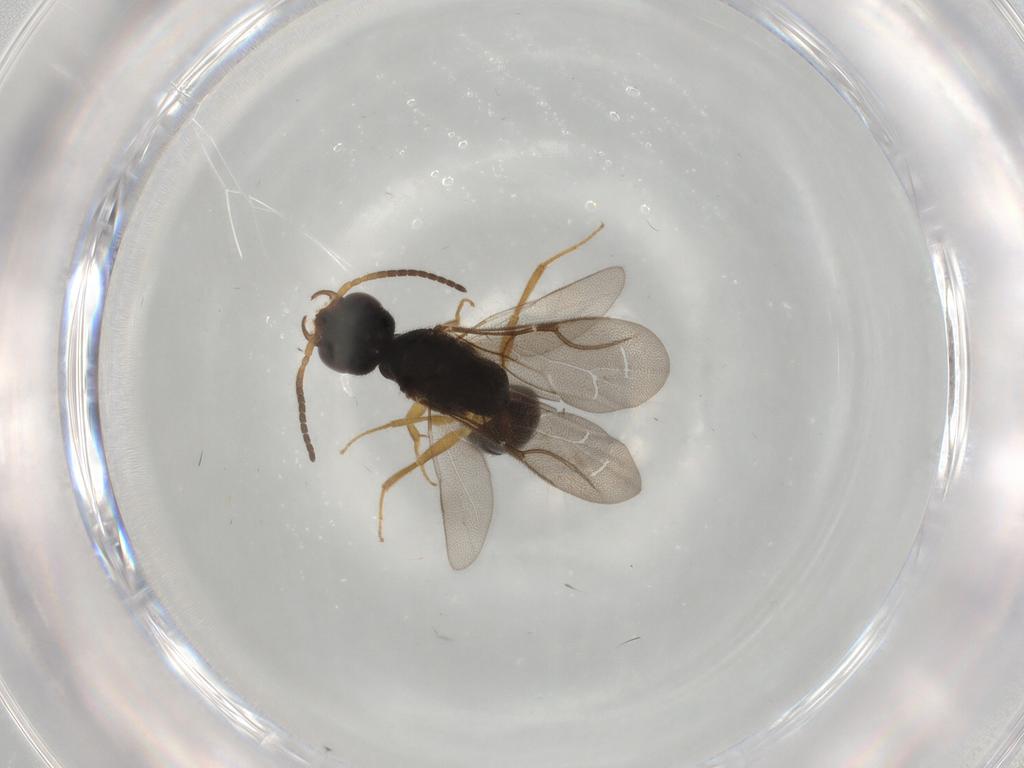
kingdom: Animalia
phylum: Arthropoda
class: Insecta
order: Hymenoptera
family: Bethylidae
